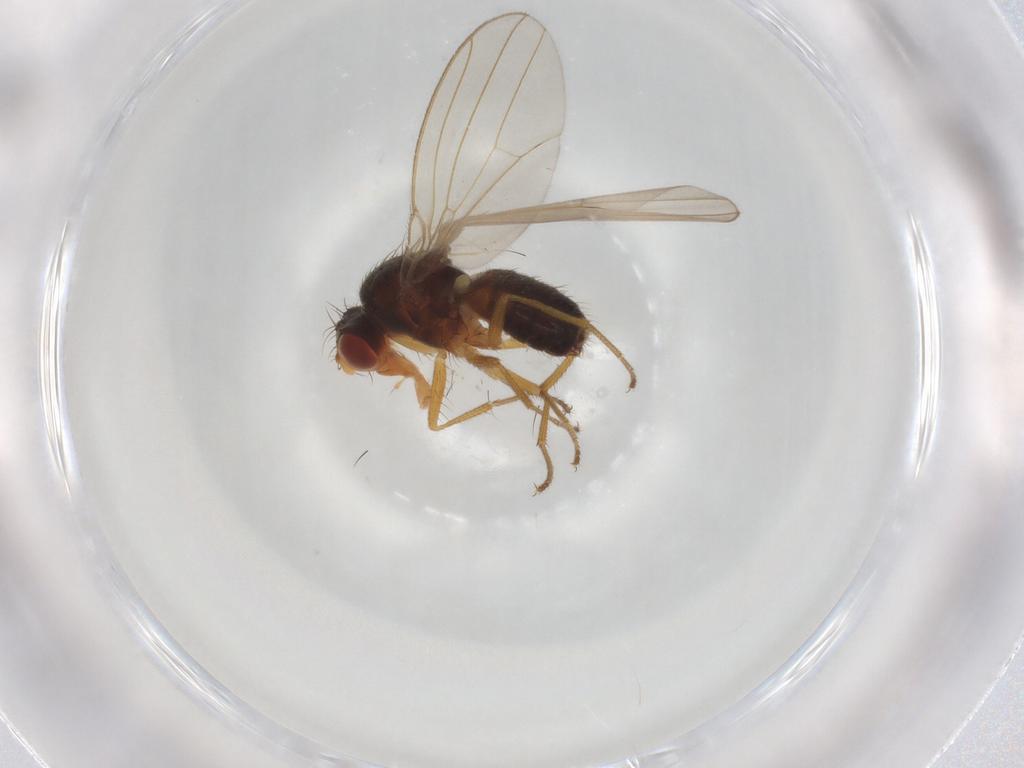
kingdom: Animalia
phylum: Arthropoda
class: Insecta
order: Diptera
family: Drosophilidae
